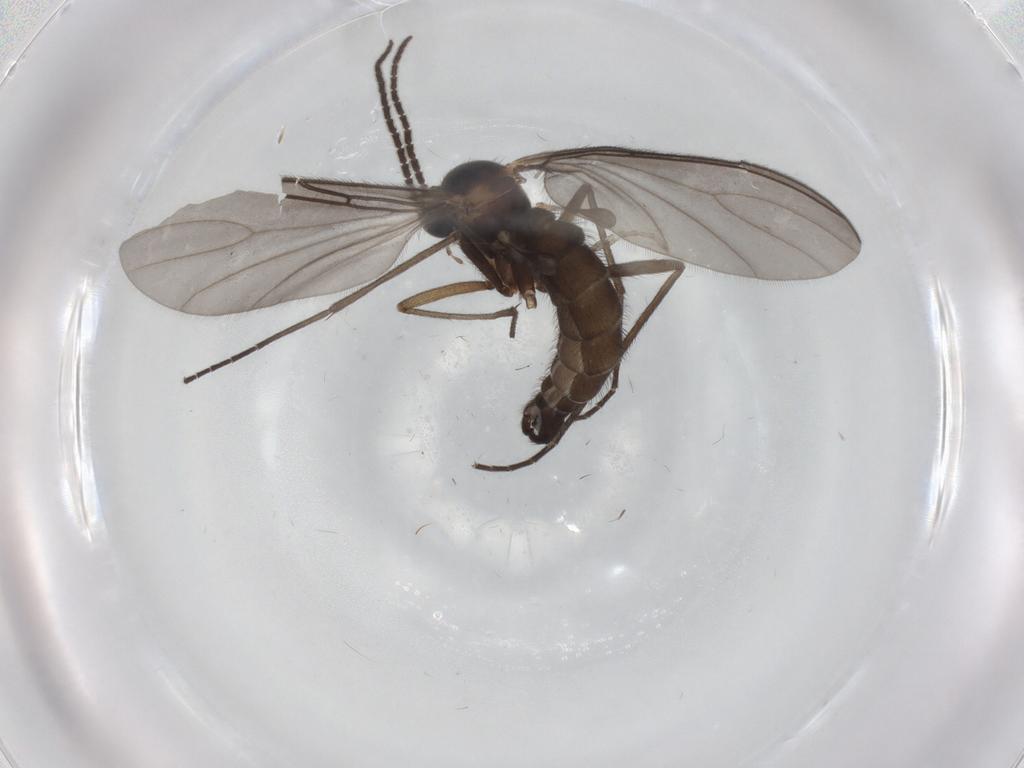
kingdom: Animalia
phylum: Arthropoda
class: Insecta
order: Diptera
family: Sciaridae
